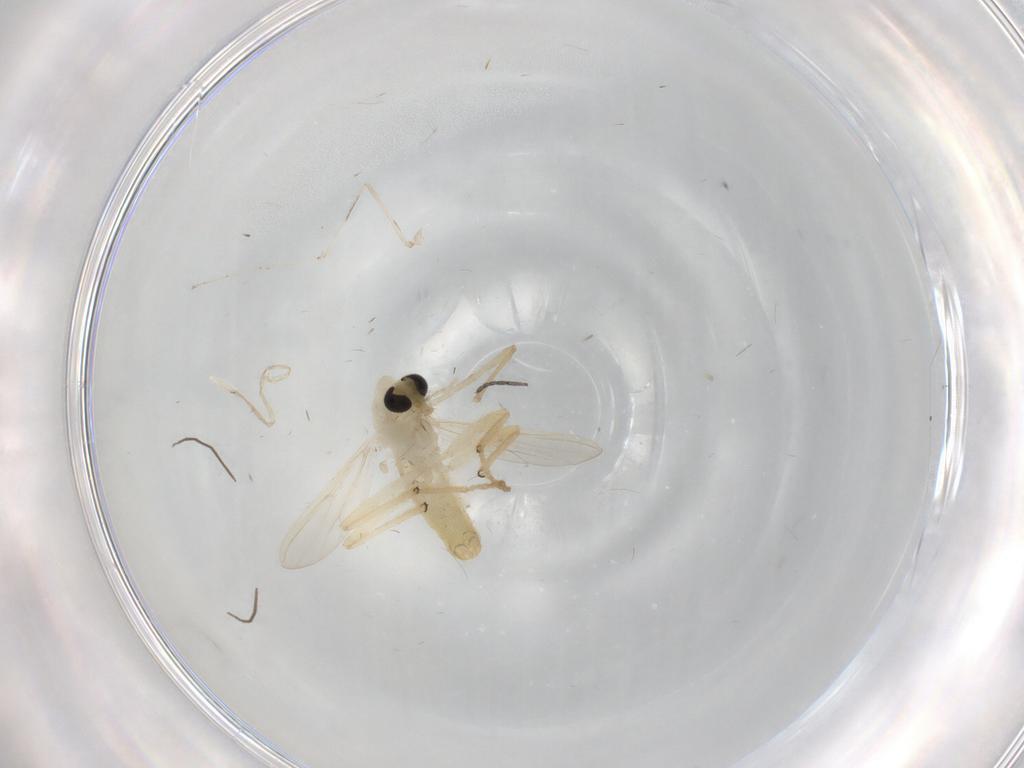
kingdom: Animalia
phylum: Arthropoda
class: Insecta
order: Diptera
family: Chironomidae
